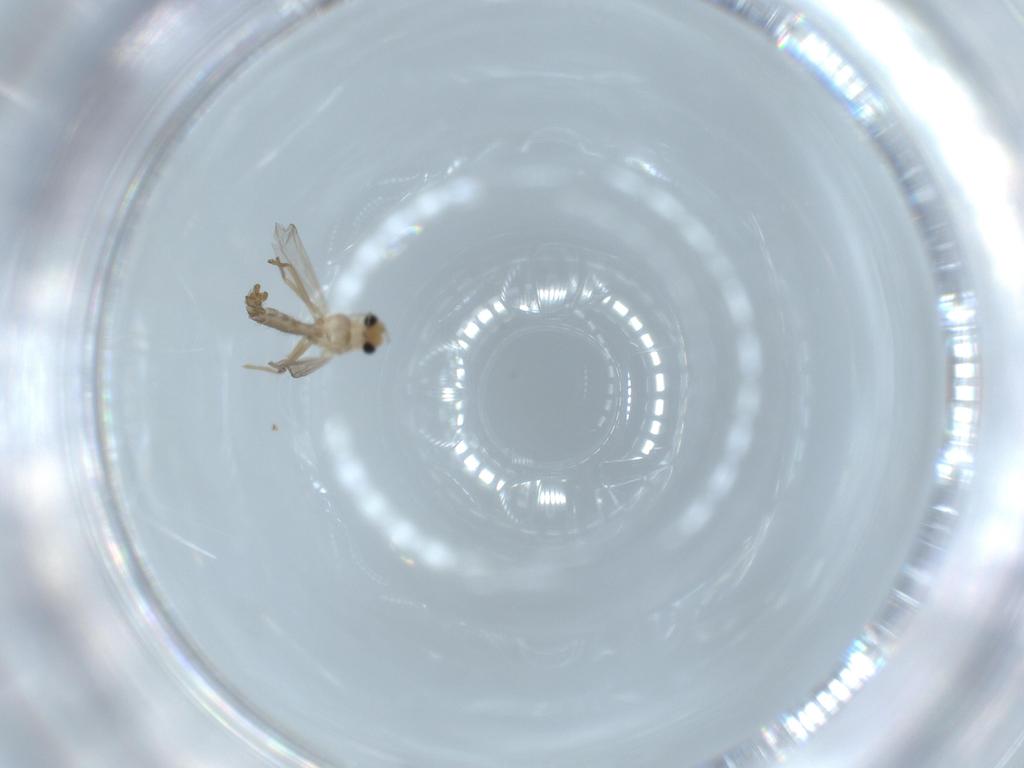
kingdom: Animalia
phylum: Arthropoda
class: Insecta
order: Diptera
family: Chironomidae
